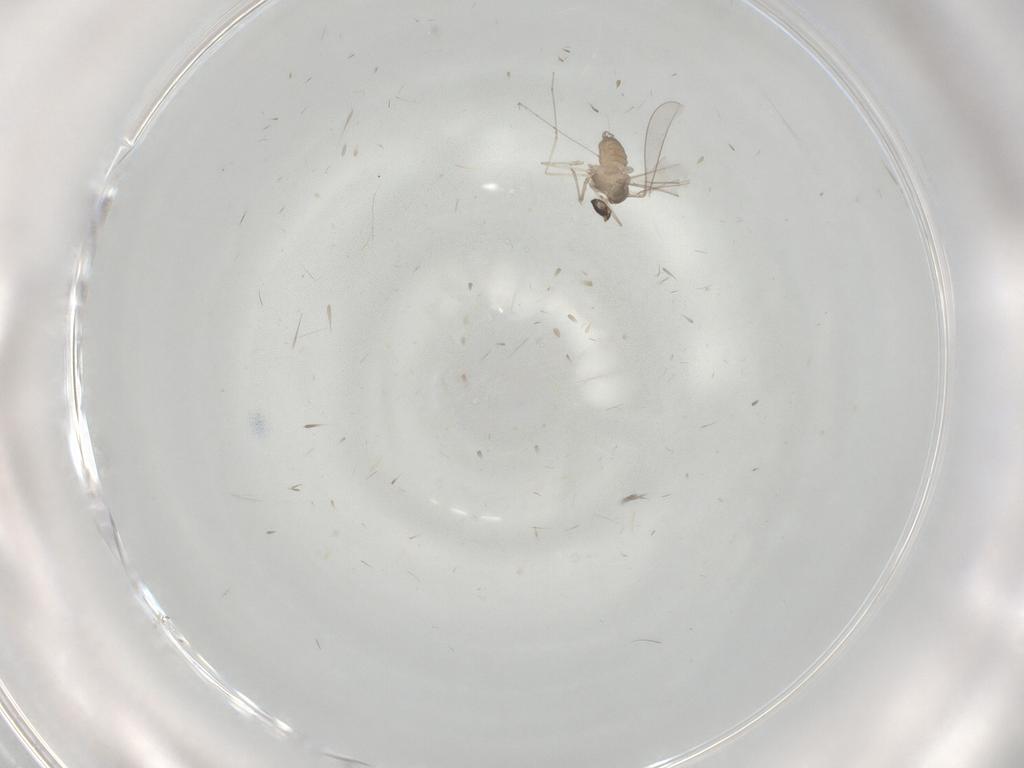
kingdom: Animalia
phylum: Arthropoda
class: Insecta
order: Diptera
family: Cecidomyiidae
